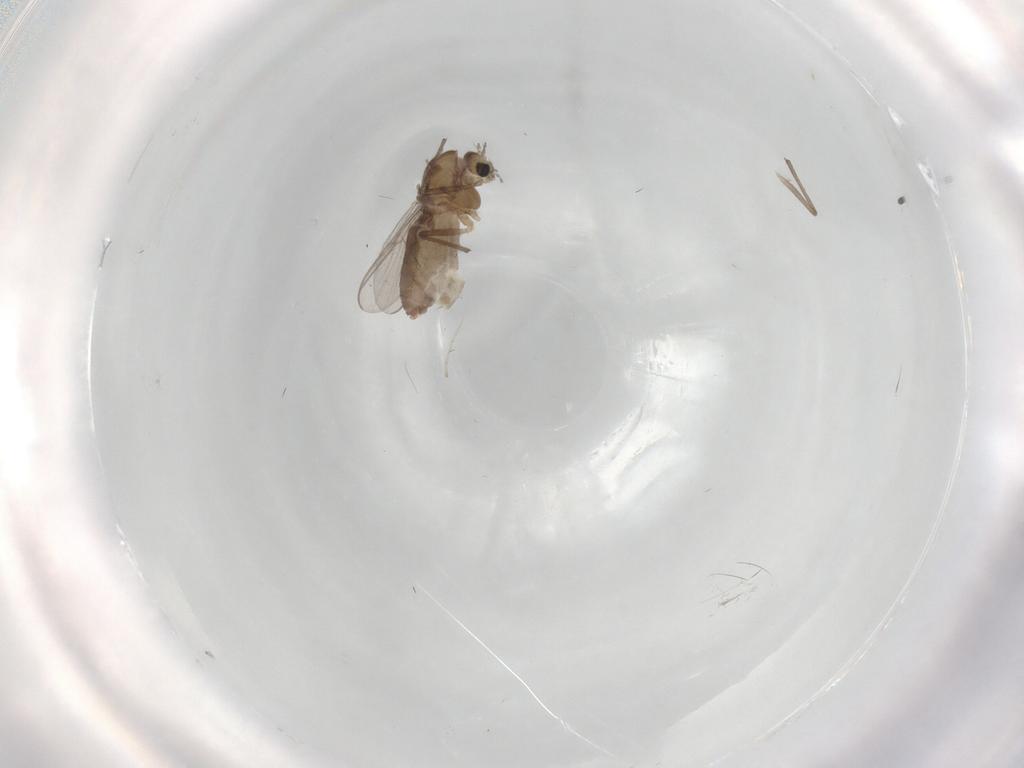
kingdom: Animalia
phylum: Arthropoda
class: Insecta
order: Diptera
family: Chironomidae
